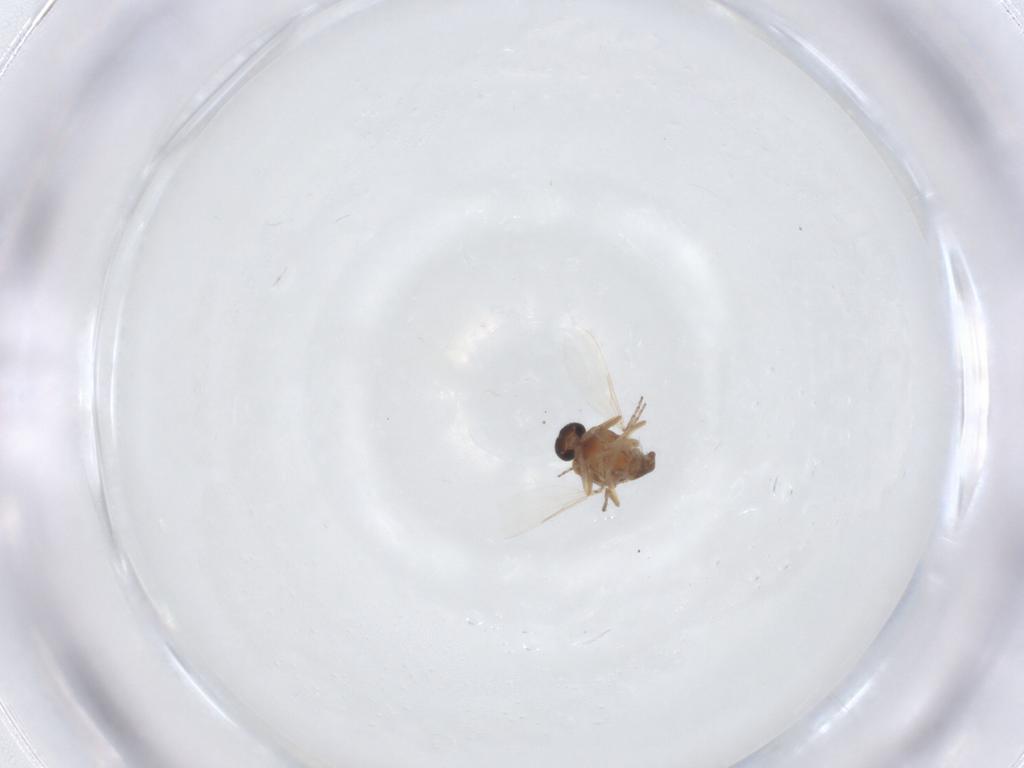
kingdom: Animalia
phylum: Arthropoda
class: Insecta
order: Diptera
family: Ceratopogonidae
